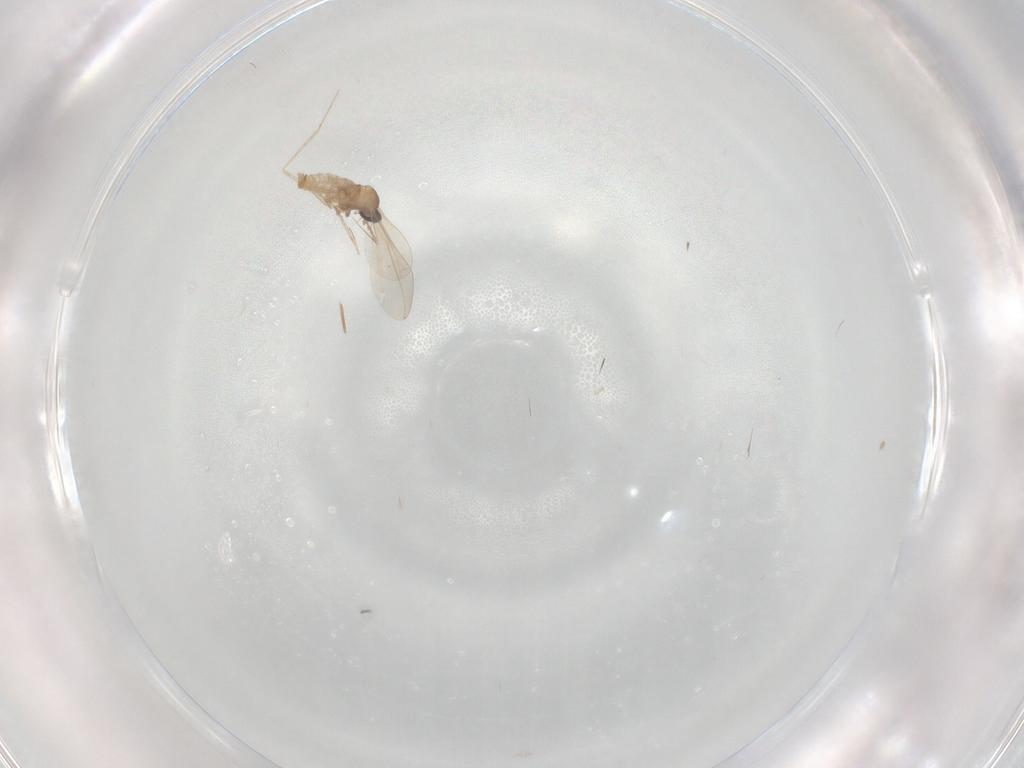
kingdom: Animalia
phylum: Arthropoda
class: Insecta
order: Diptera
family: Cecidomyiidae
